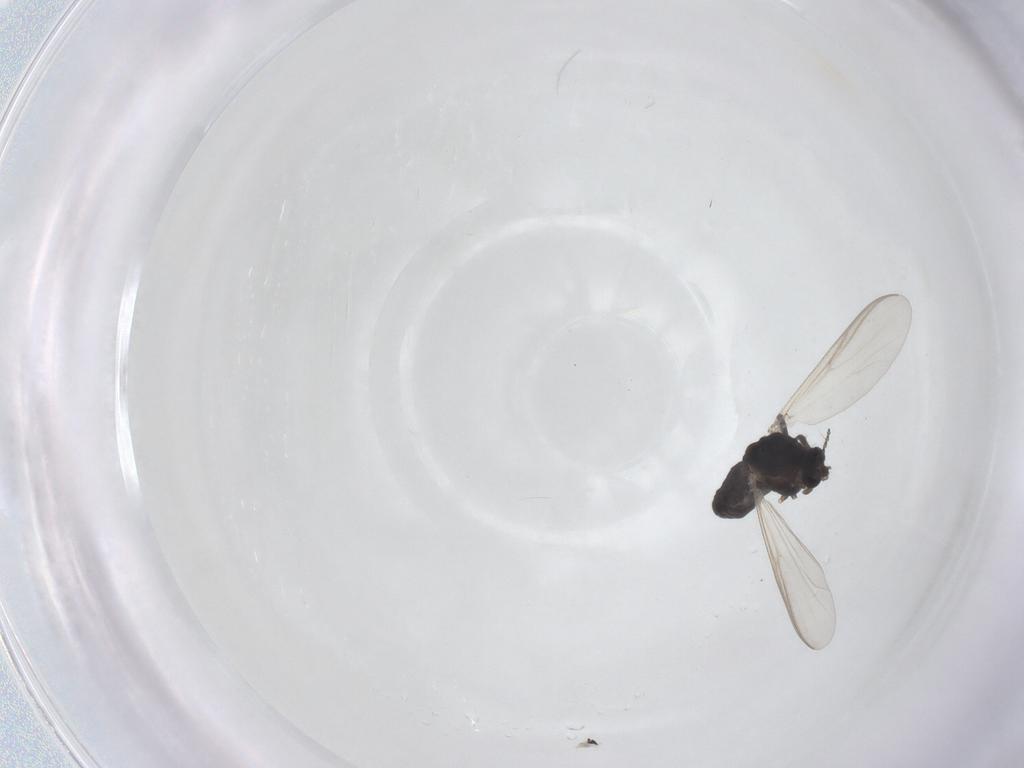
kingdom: Animalia
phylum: Arthropoda
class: Insecta
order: Diptera
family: Chironomidae
